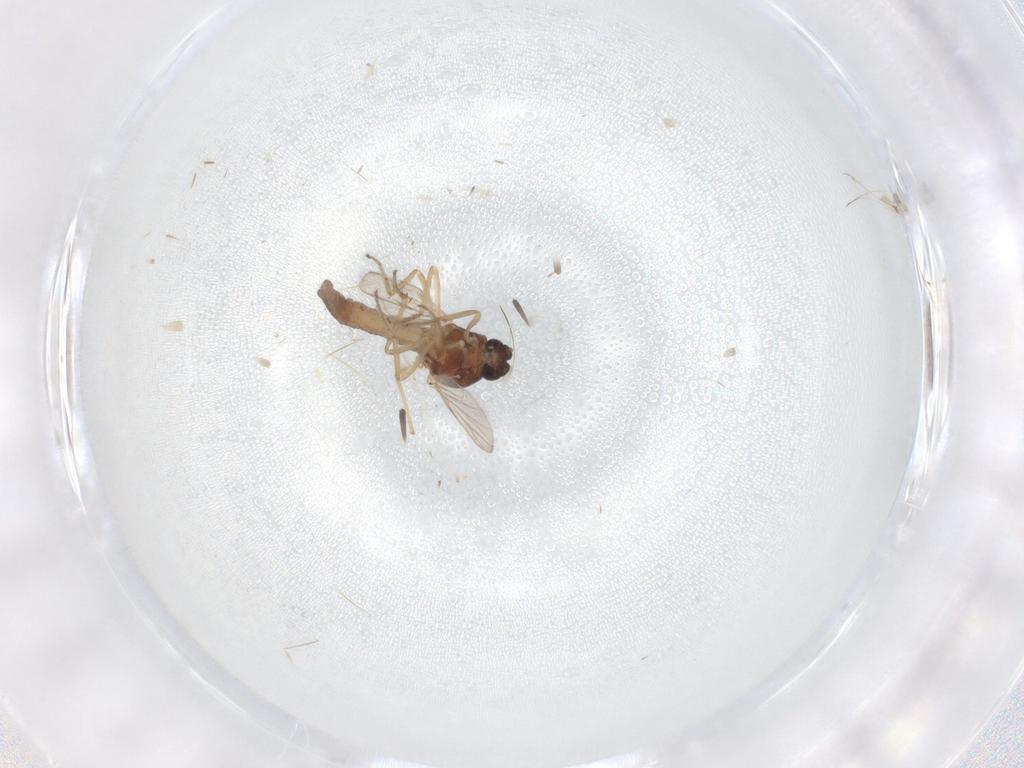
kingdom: Animalia
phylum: Arthropoda
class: Insecta
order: Diptera
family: Ceratopogonidae
